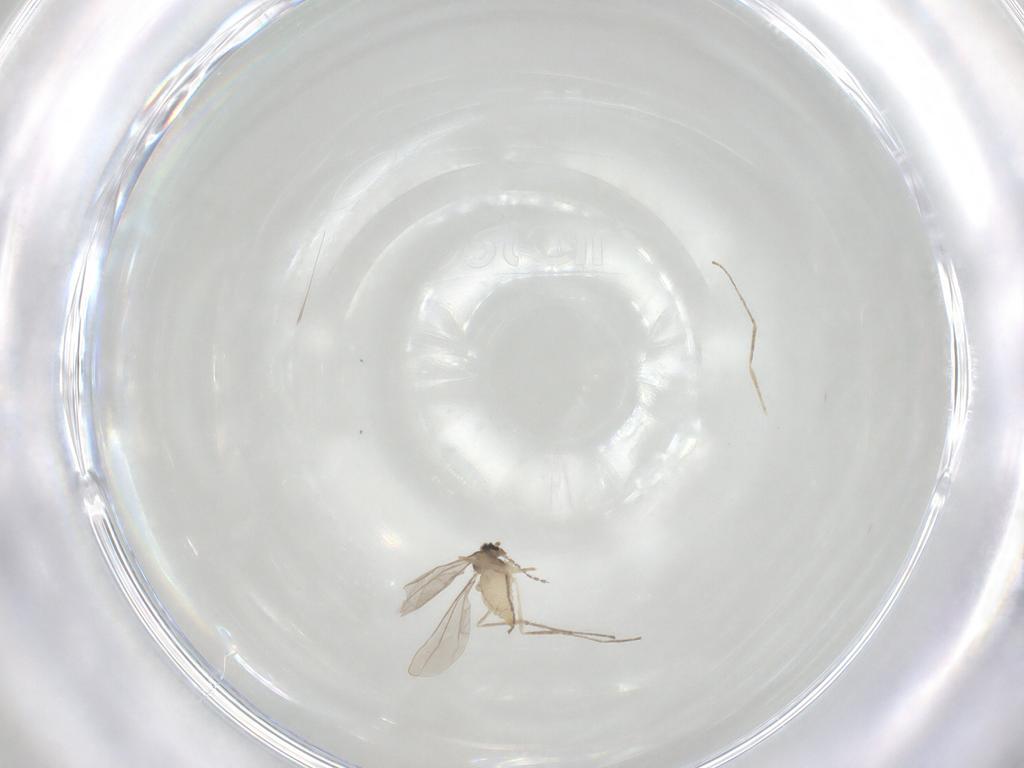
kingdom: Animalia
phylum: Arthropoda
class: Insecta
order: Diptera
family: Cecidomyiidae
